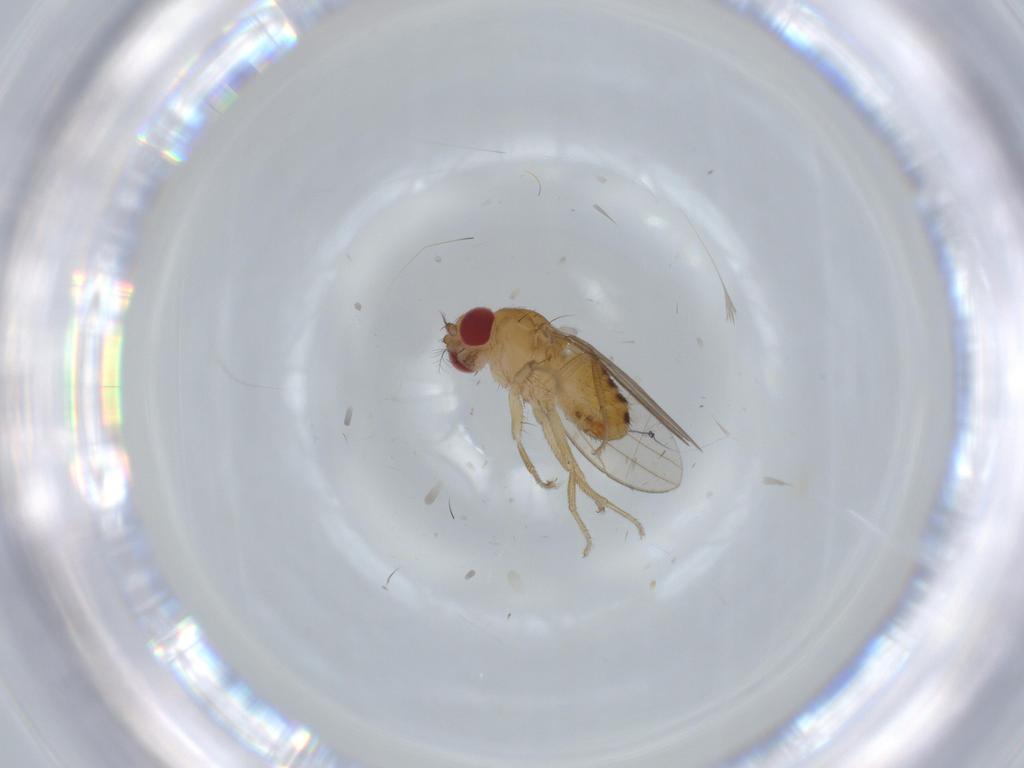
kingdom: Animalia
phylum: Arthropoda
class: Insecta
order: Diptera
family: Drosophilidae
